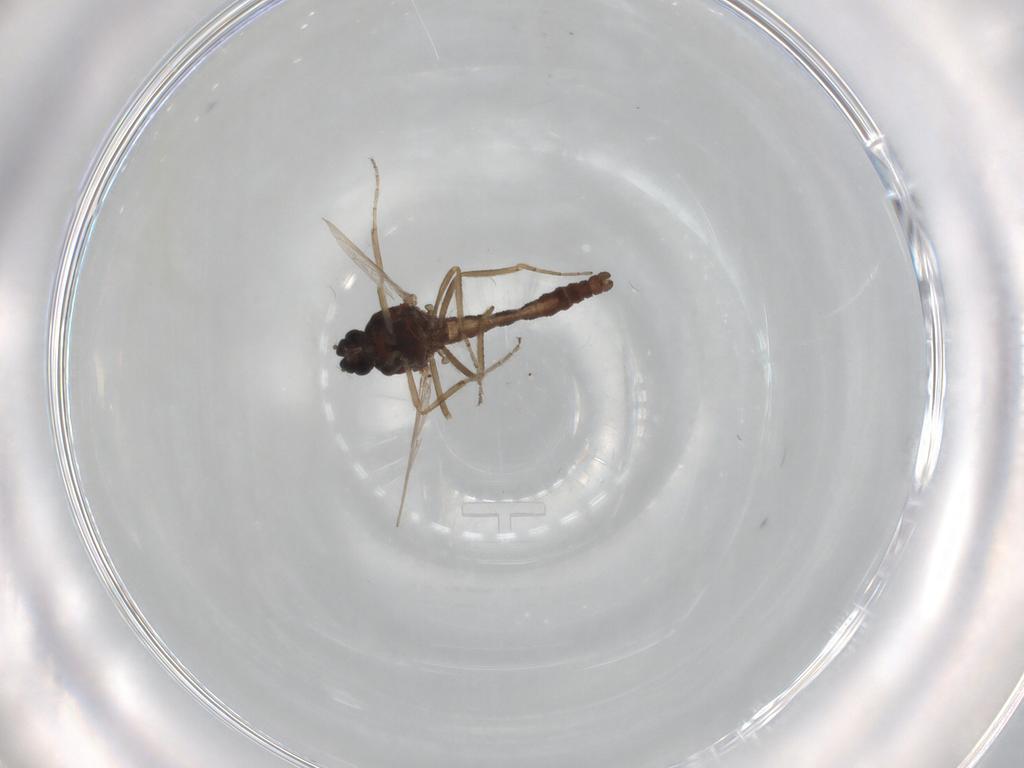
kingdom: Animalia
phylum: Arthropoda
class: Insecta
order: Diptera
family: Ceratopogonidae
